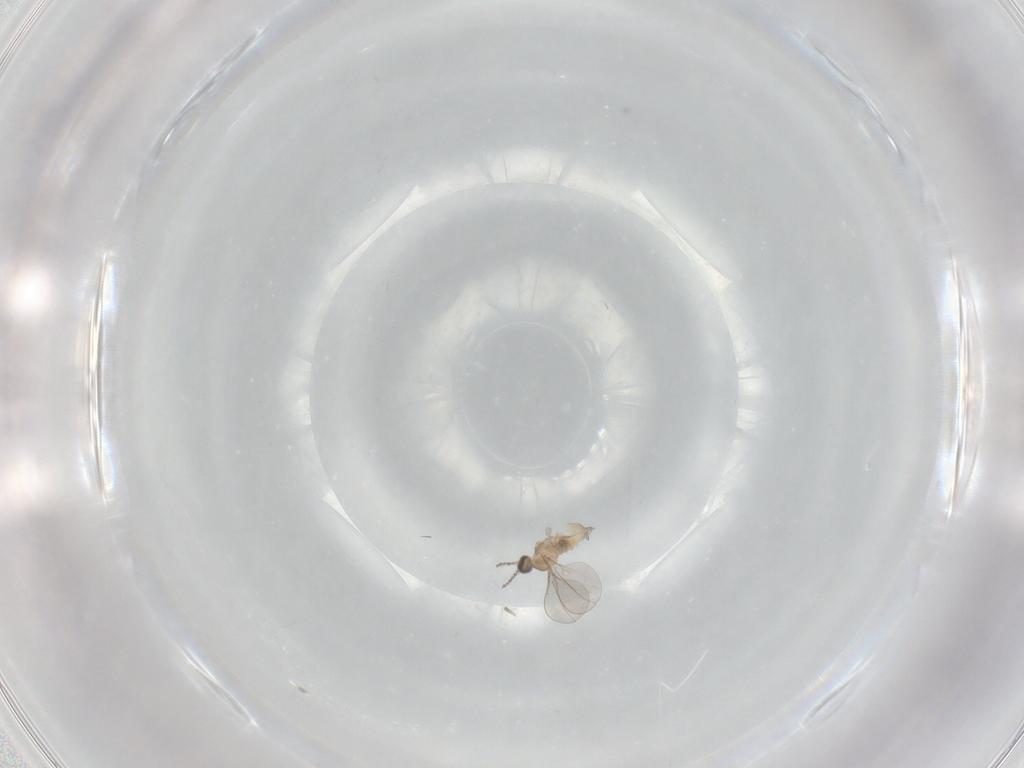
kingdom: Animalia
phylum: Arthropoda
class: Insecta
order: Diptera
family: Cecidomyiidae
